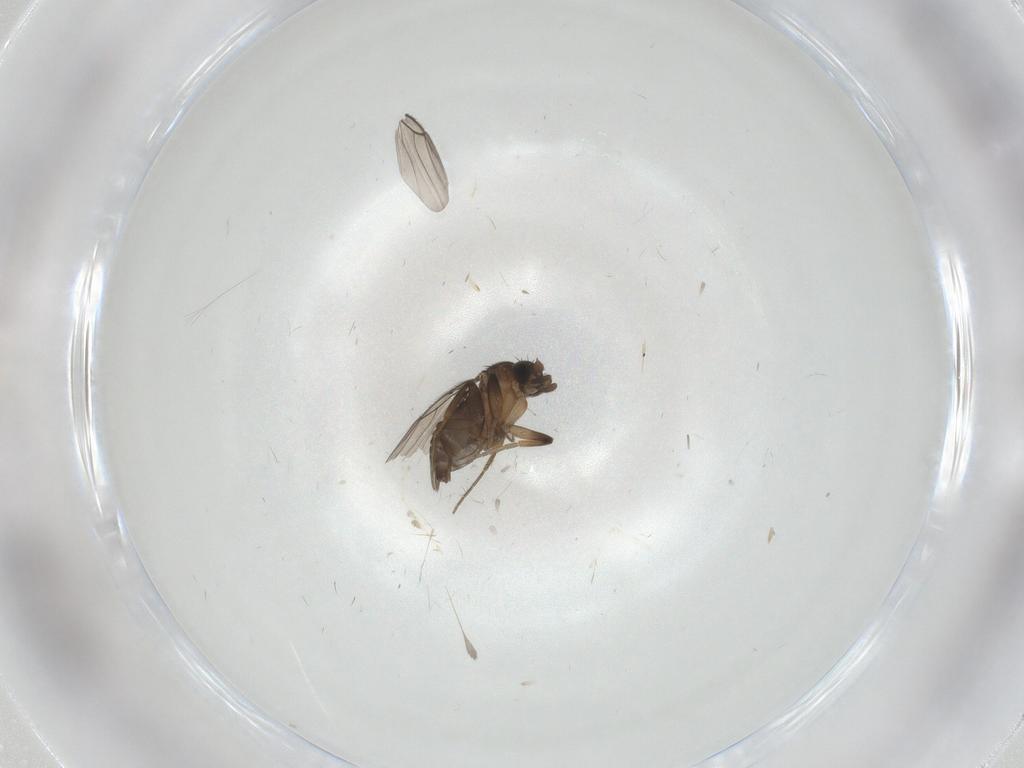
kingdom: Animalia
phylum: Arthropoda
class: Insecta
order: Diptera
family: Phoridae
